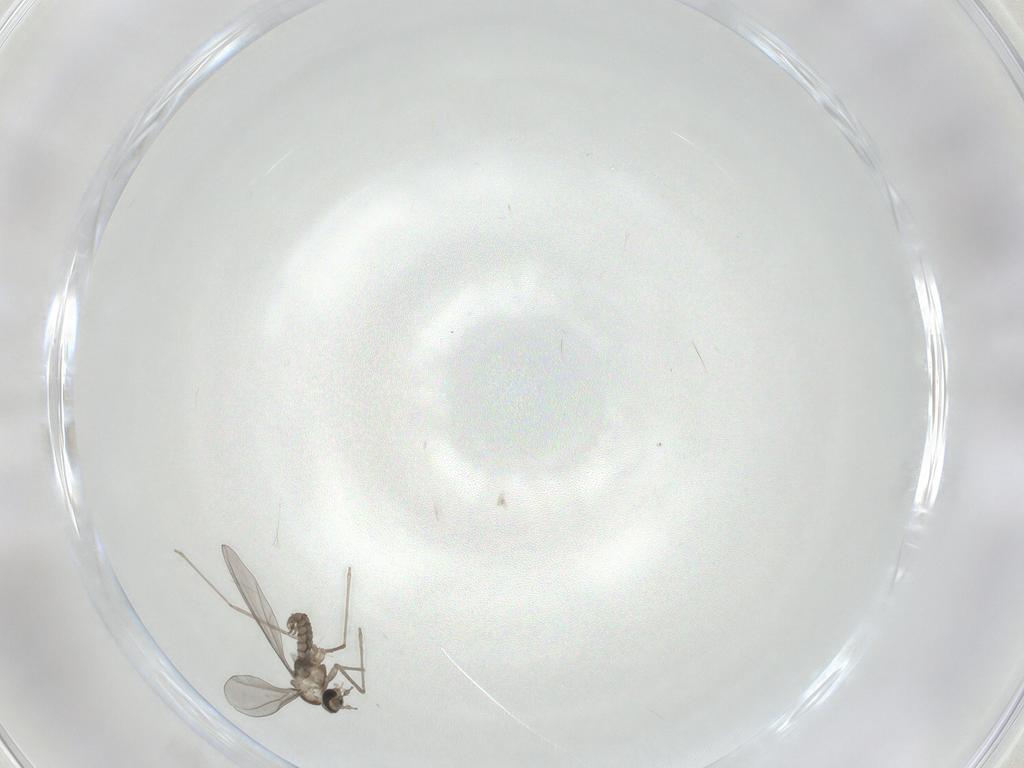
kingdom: Animalia
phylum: Arthropoda
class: Insecta
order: Diptera
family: Cecidomyiidae
